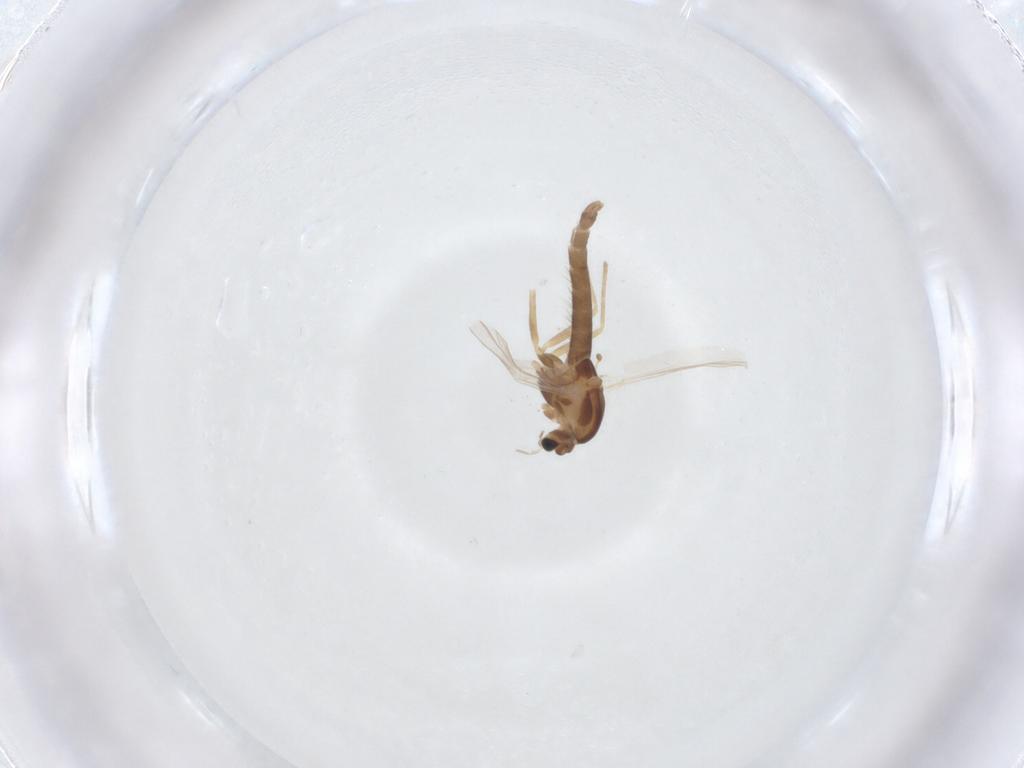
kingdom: Animalia
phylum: Arthropoda
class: Insecta
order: Diptera
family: Chironomidae
